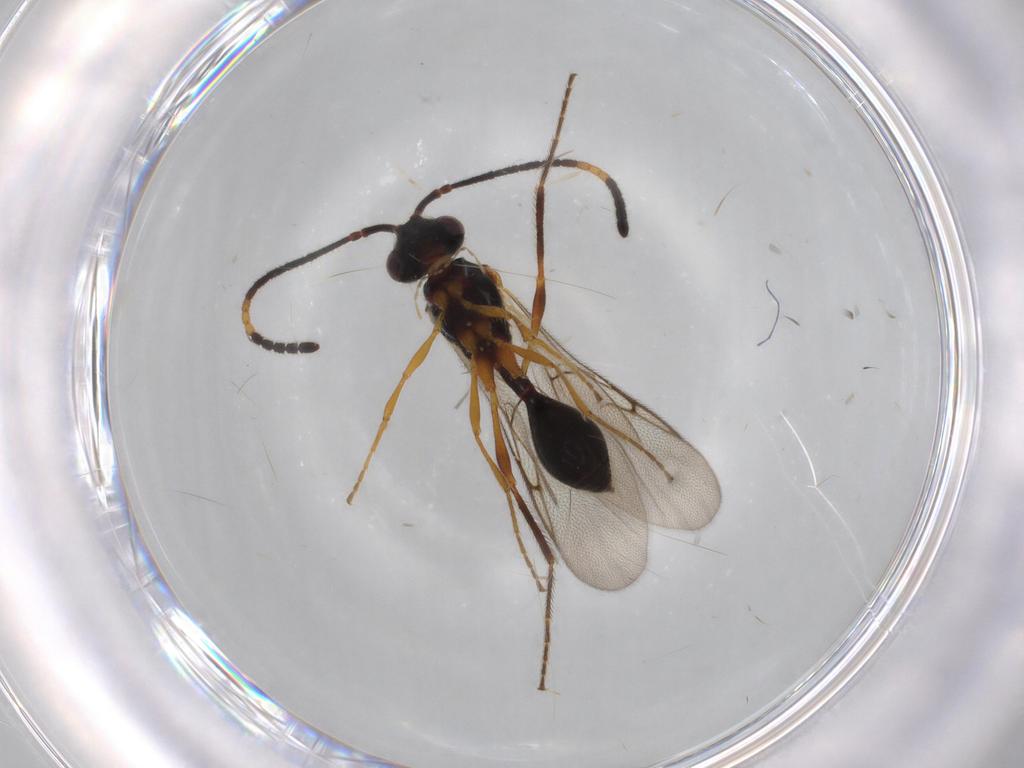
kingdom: Animalia
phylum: Arthropoda
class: Insecta
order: Hymenoptera
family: Diapriidae
